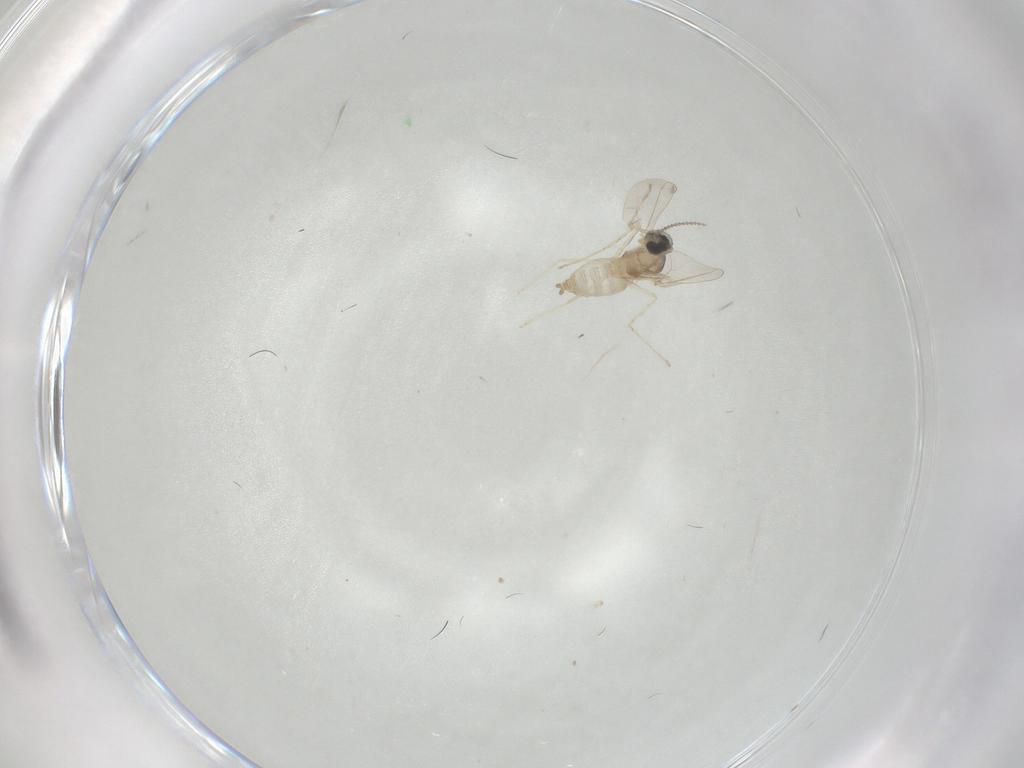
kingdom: Animalia
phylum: Arthropoda
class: Insecta
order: Diptera
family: Cecidomyiidae
